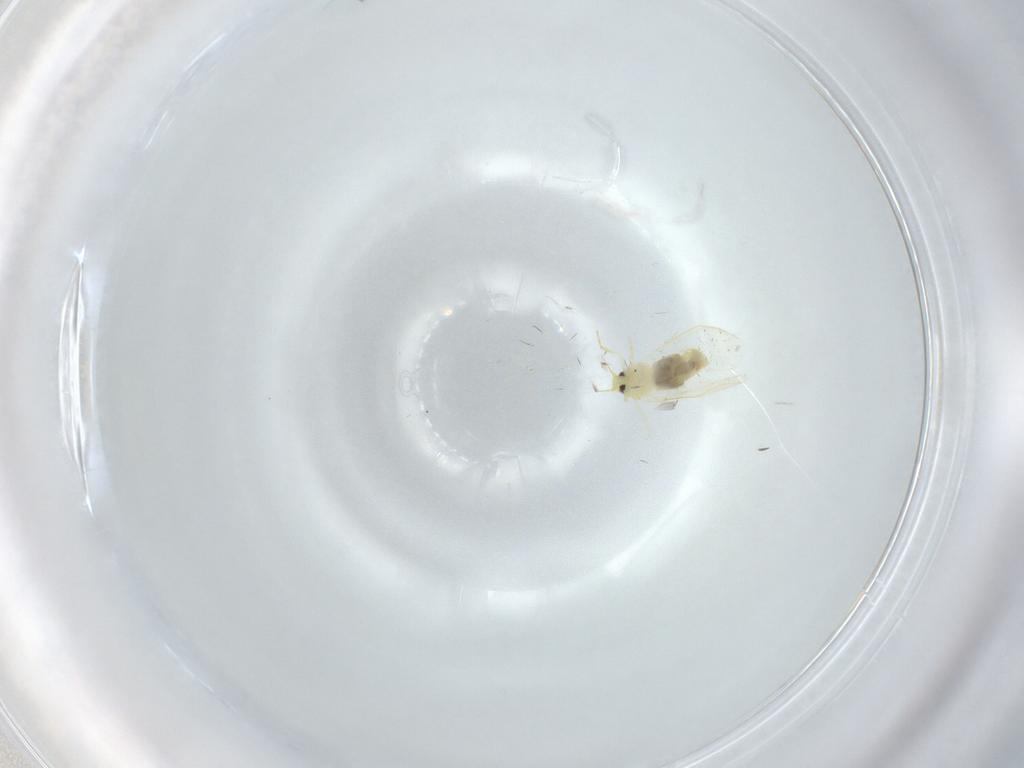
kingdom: Animalia
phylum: Arthropoda
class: Insecta
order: Hemiptera
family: Aleyrodidae
